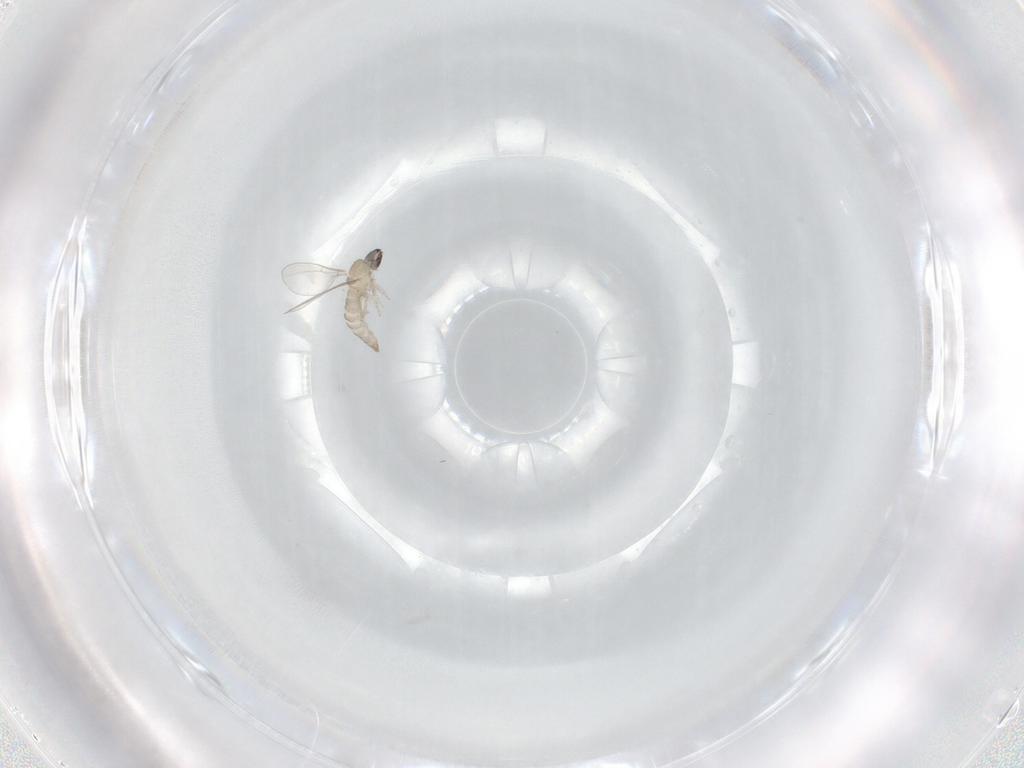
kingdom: Animalia
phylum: Arthropoda
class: Insecta
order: Diptera
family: Cecidomyiidae
